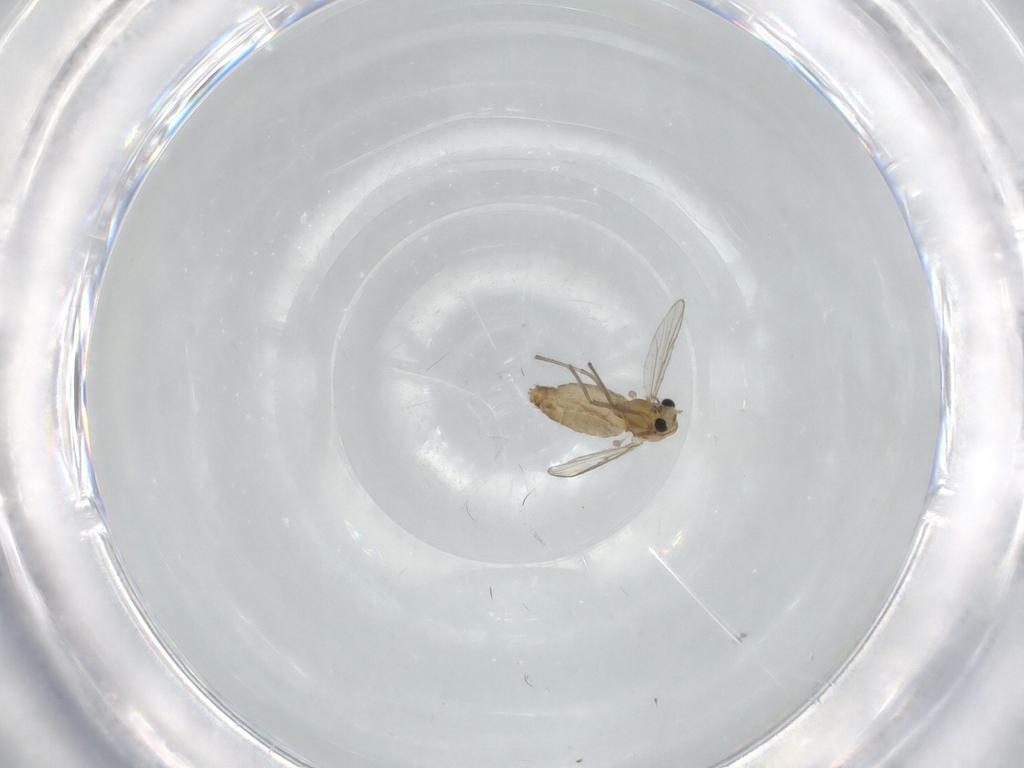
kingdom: Animalia
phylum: Arthropoda
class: Insecta
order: Diptera
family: Chironomidae
